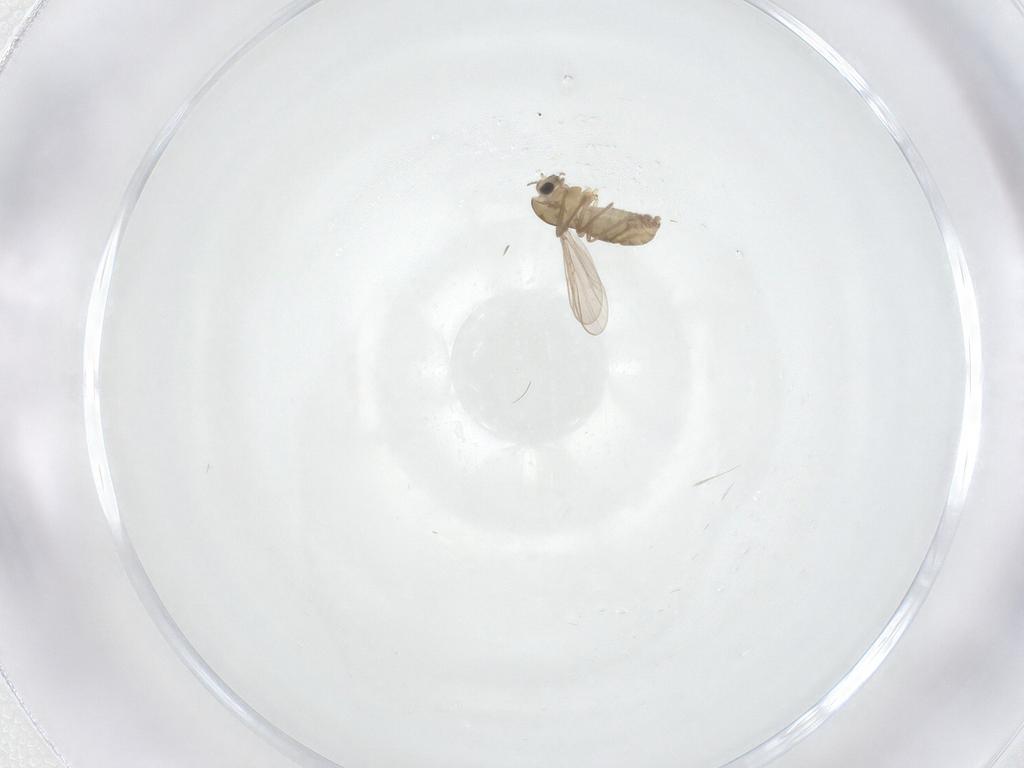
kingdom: Animalia
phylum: Arthropoda
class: Insecta
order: Diptera
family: Chironomidae
